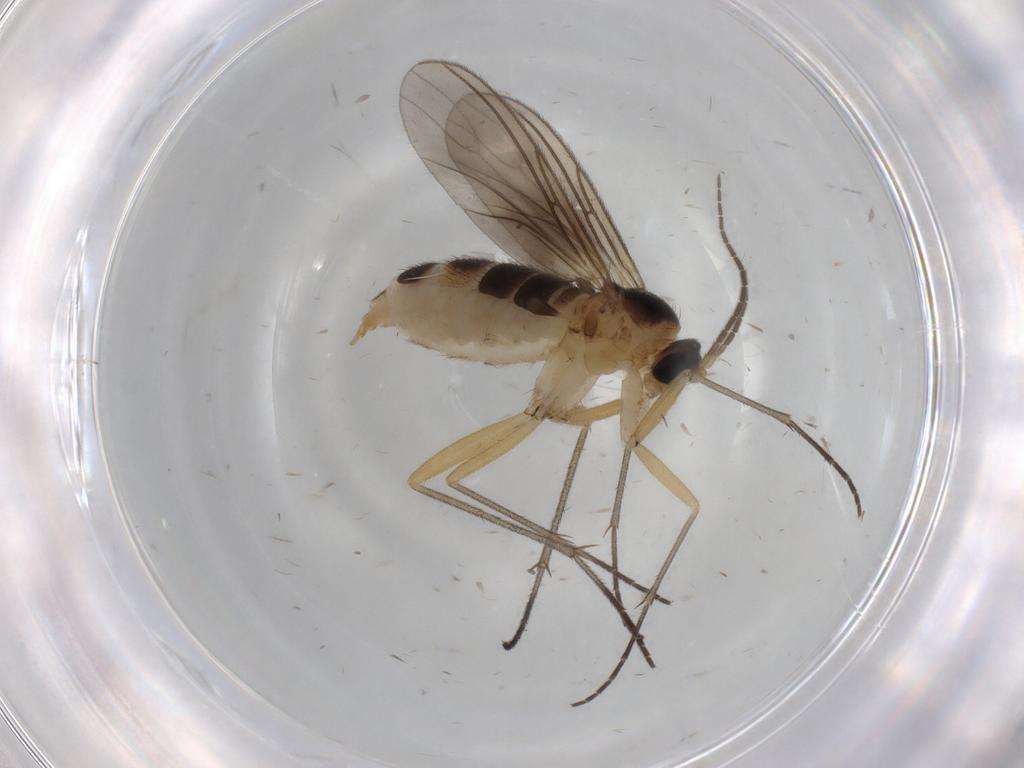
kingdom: Animalia
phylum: Arthropoda
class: Insecta
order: Diptera
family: Sciaridae
